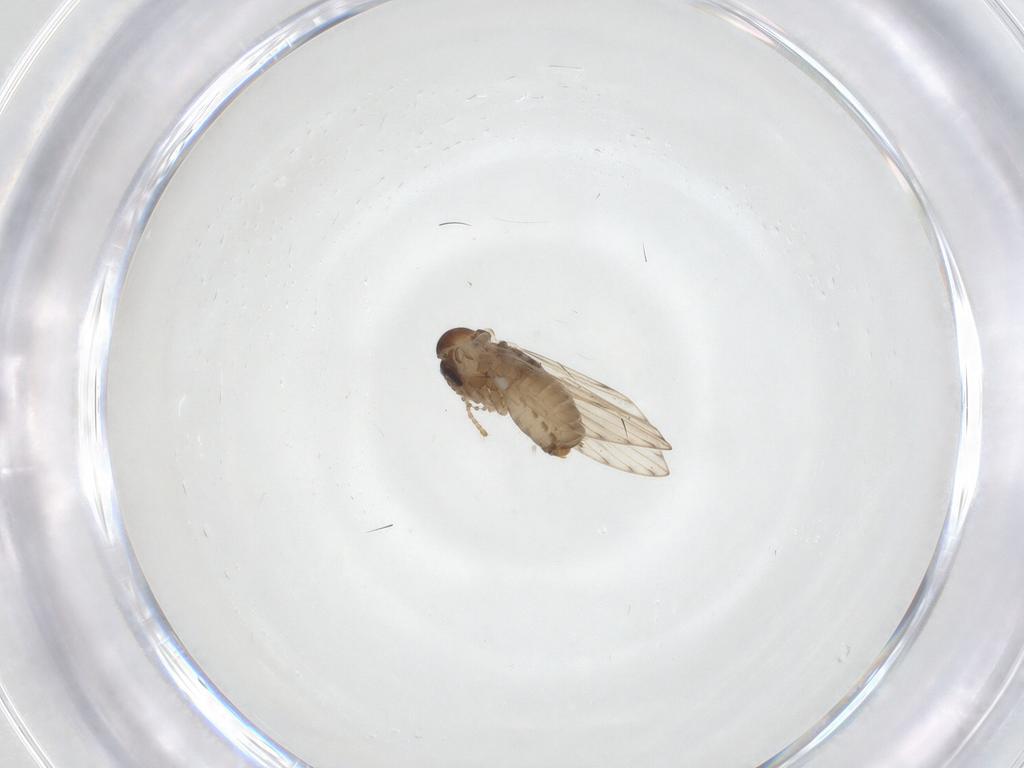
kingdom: Animalia
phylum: Arthropoda
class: Insecta
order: Diptera
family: Psychodidae
